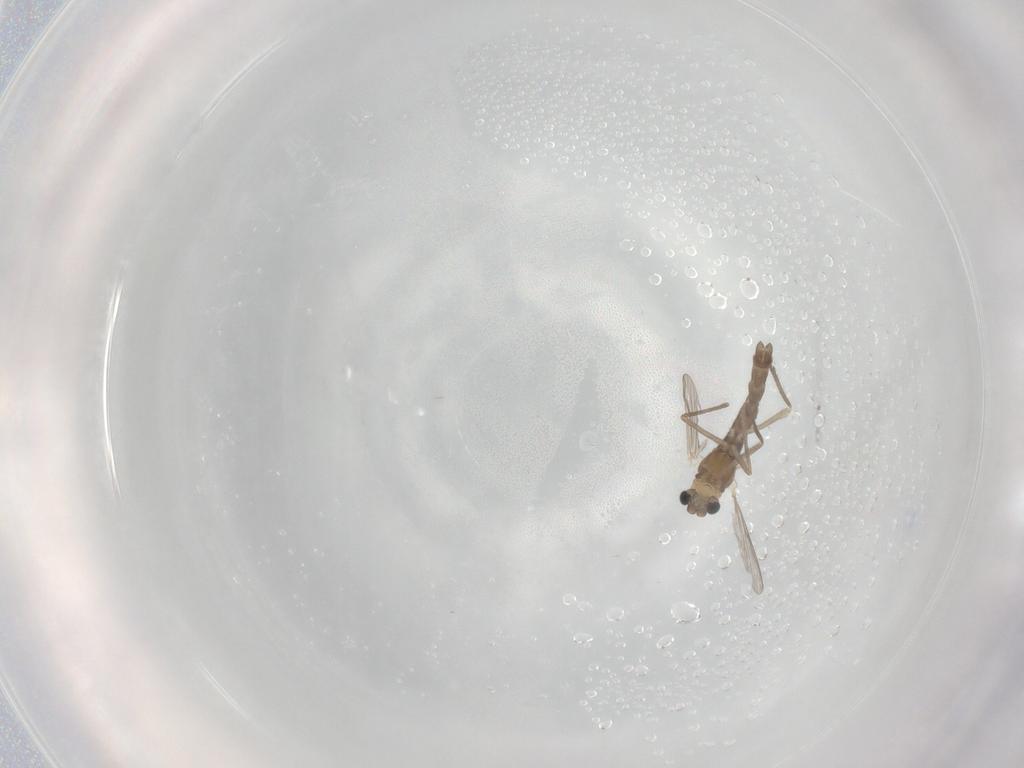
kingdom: Animalia
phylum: Arthropoda
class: Insecta
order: Diptera
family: Chironomidae
